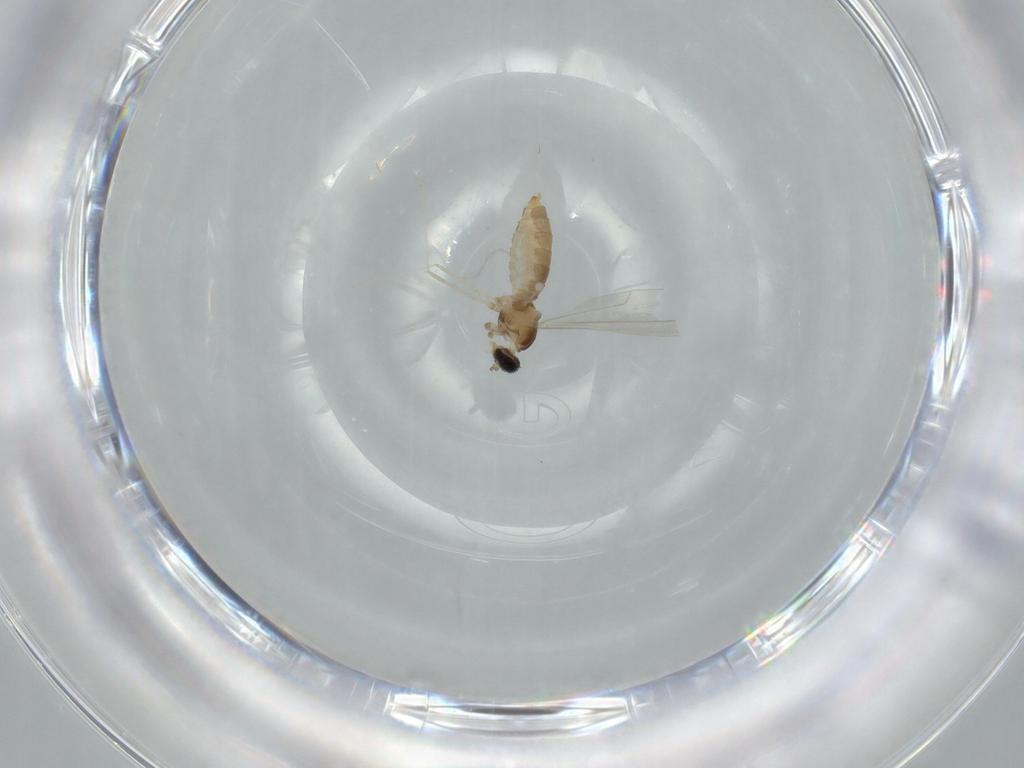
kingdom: Animalia
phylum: Arthropoda
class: Insecta
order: Diptera
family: Cecidomyiidae
